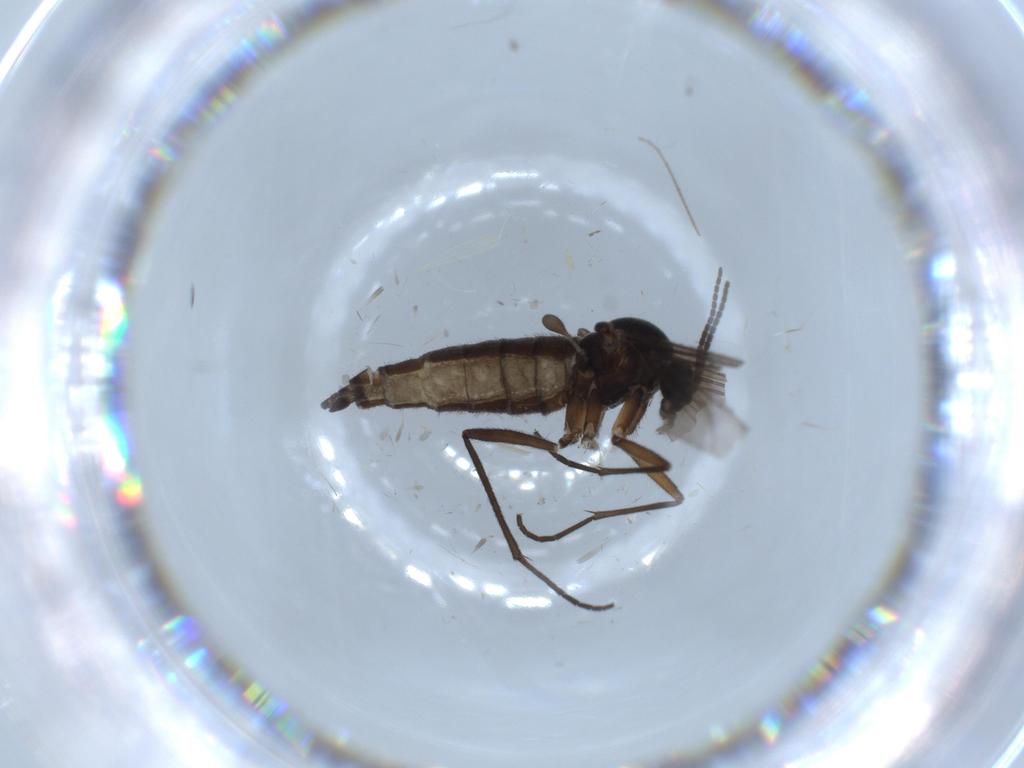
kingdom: Animalia
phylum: Arthropoda
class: Insecta
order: Diptera
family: Sciaridae
